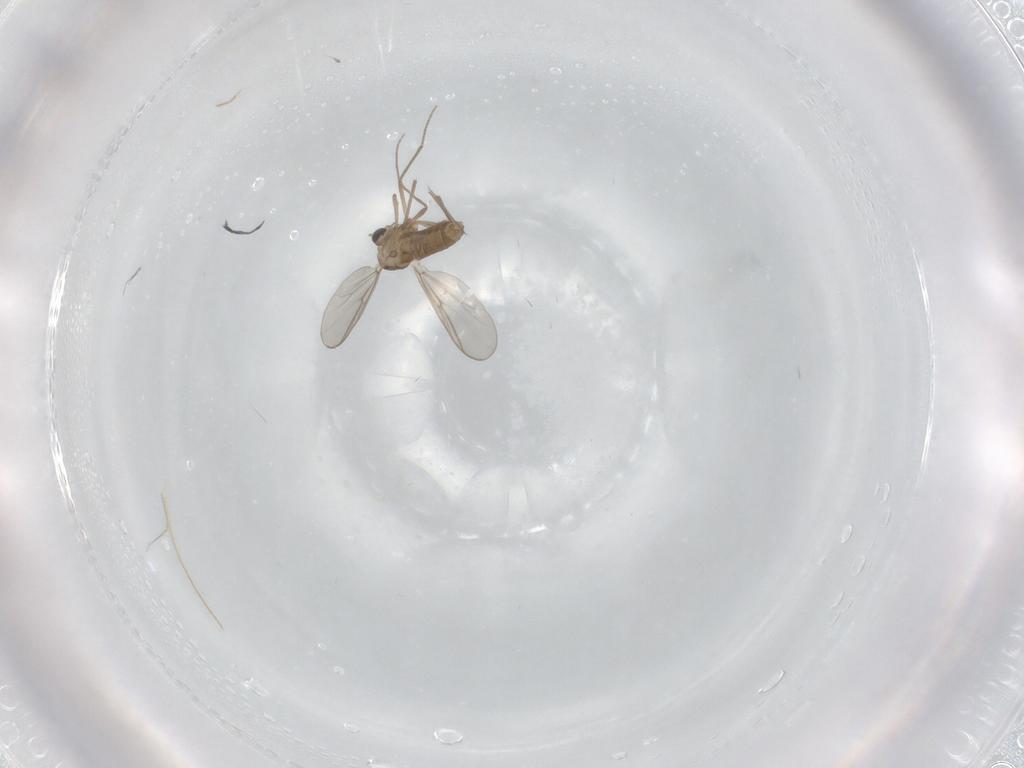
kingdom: Animalia
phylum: Arthropoda
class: Insecta
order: Diptera
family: Chironomidae
